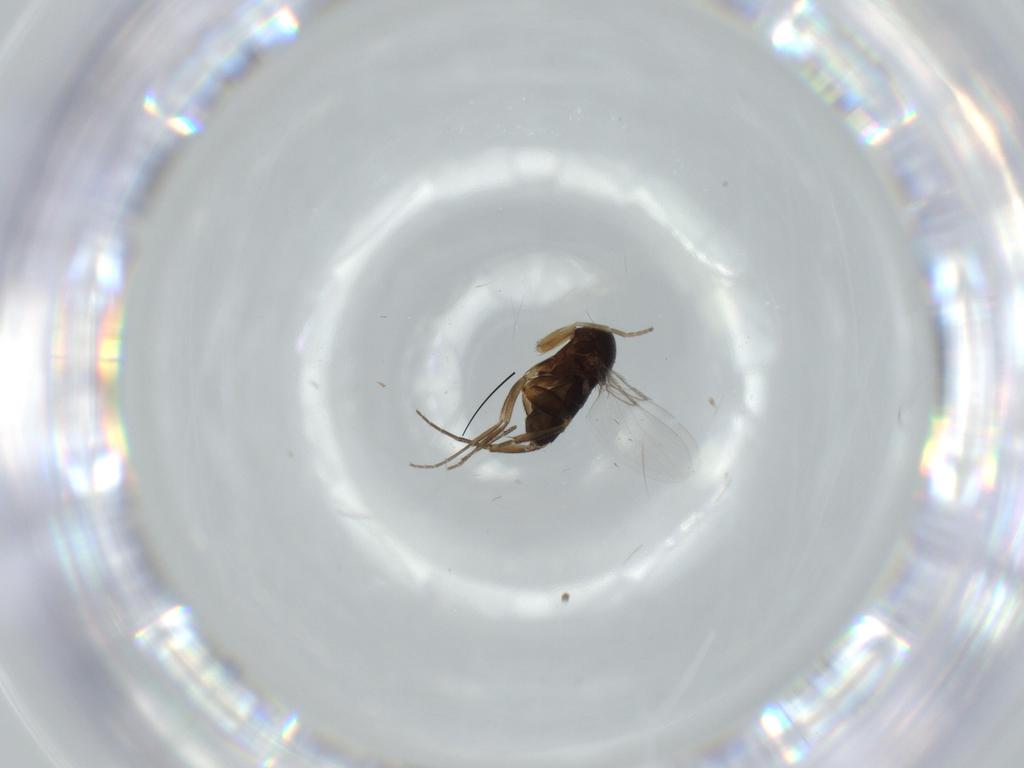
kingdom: Animalia
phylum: Arthropoda
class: Insecta
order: Diptera
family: Phoridae
